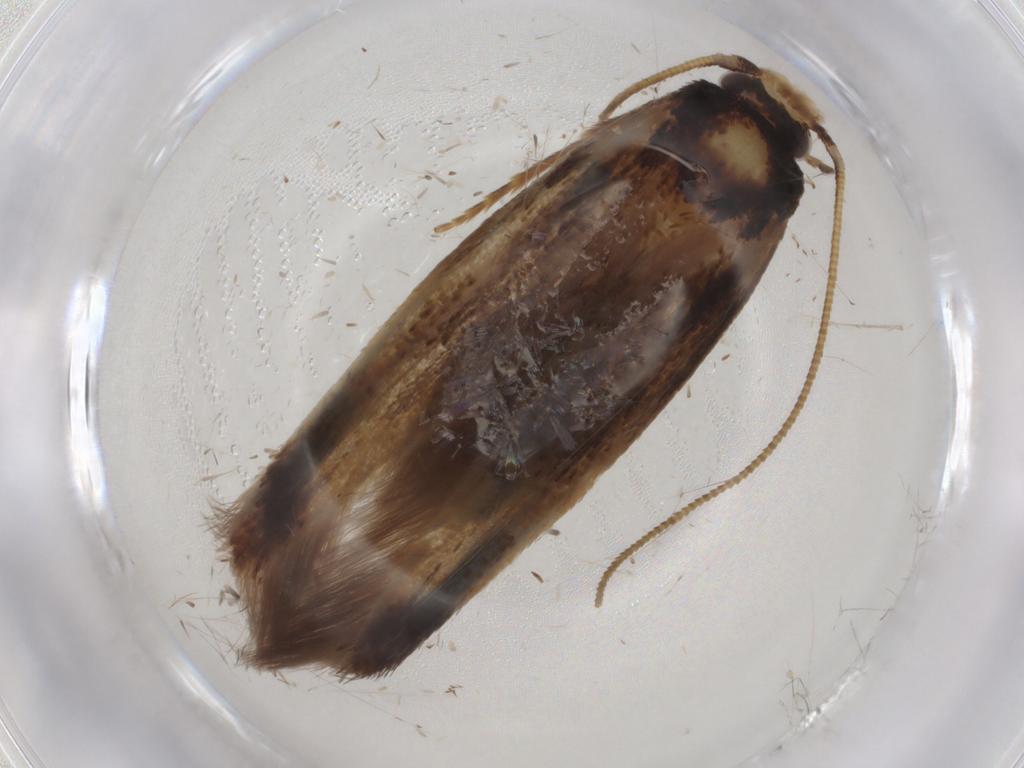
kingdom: Animalia
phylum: Arthropoda
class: Insecta
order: Lepidoptera
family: Tineidae
